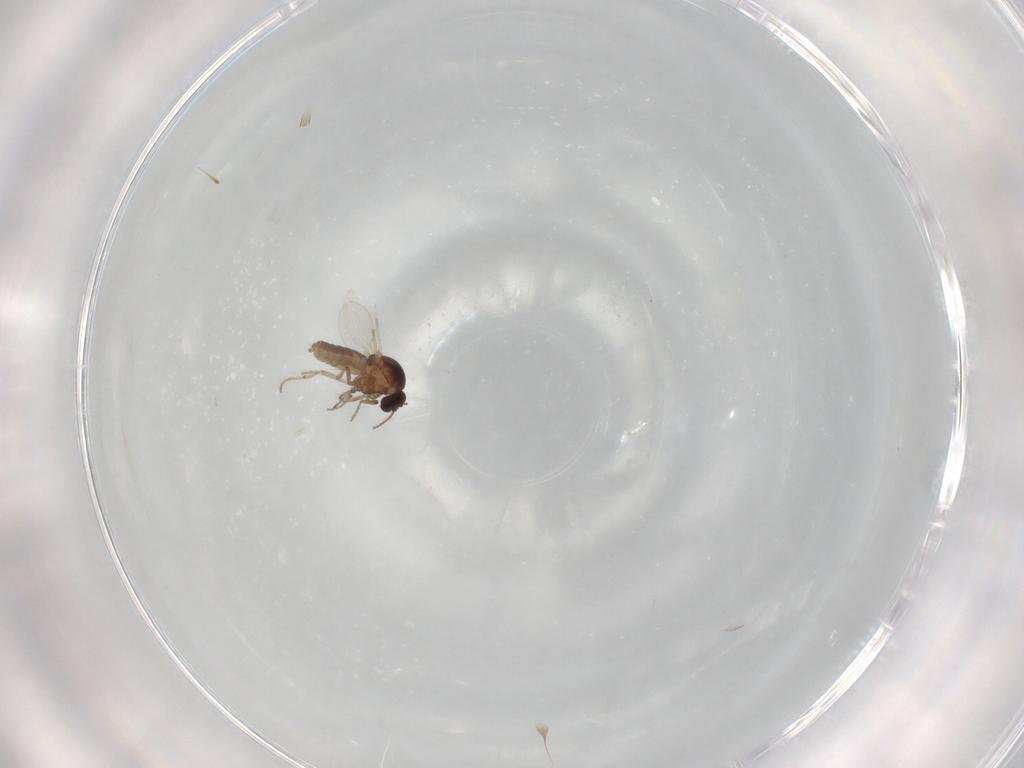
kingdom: Animalia
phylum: Arthropoda
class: Insecta
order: Diptera
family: Ceratopogonidae
